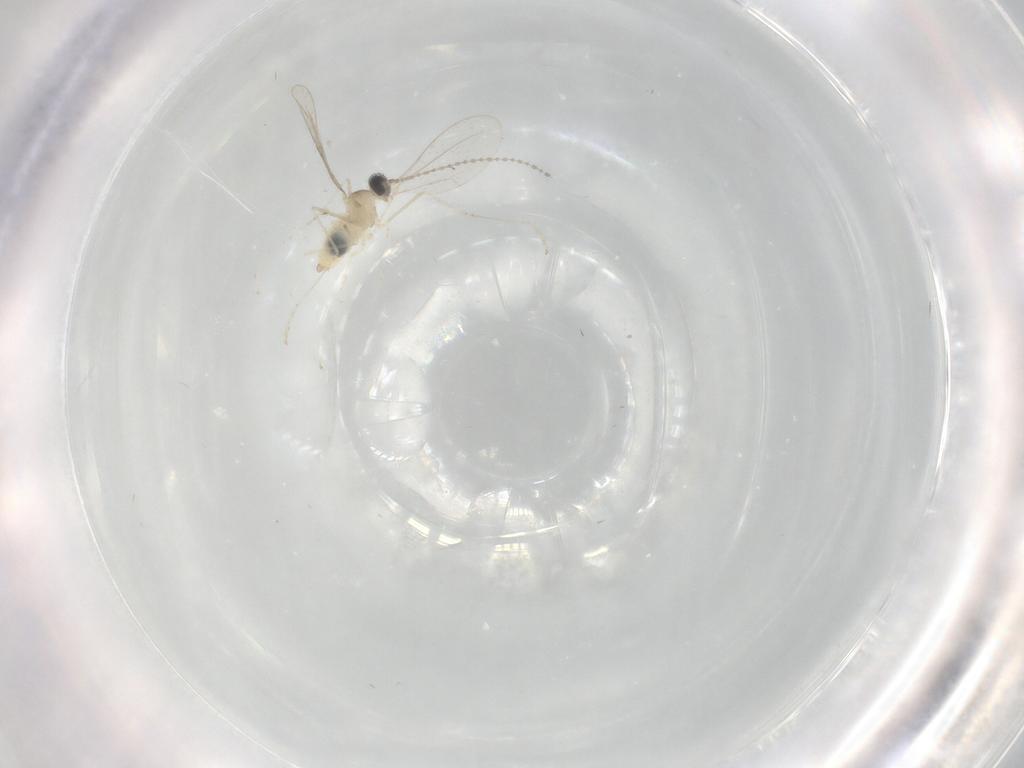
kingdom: Animalia
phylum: Arthropoda
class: Insecta
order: Diptera
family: Cecidomyiidae
